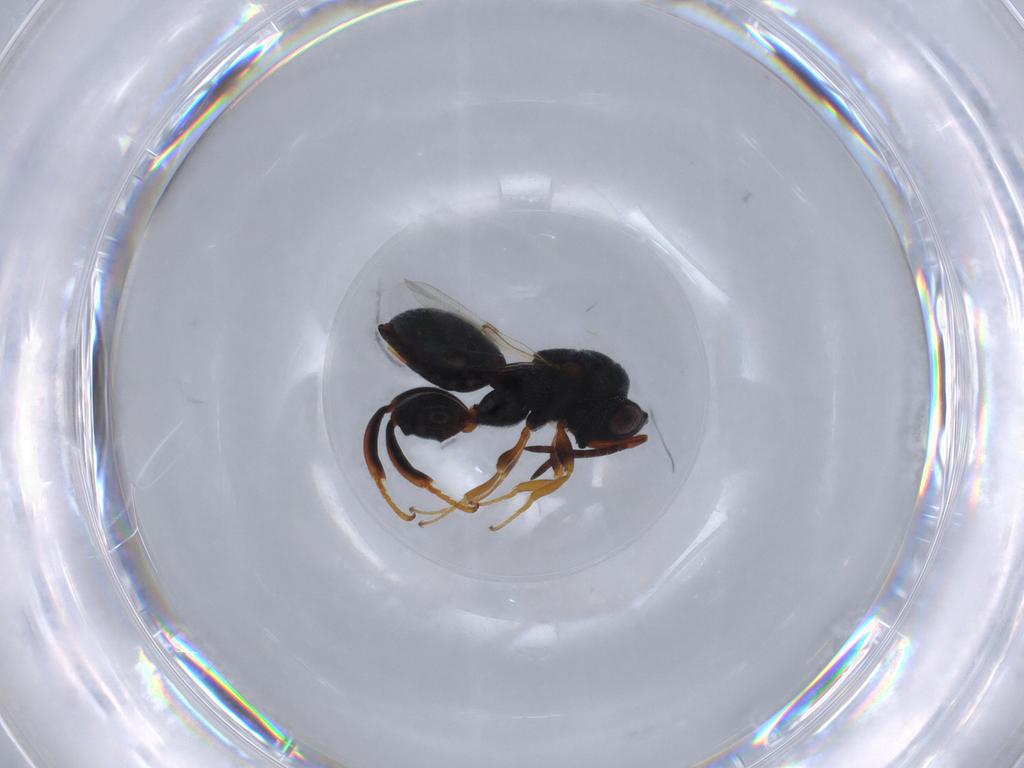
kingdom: Animalia
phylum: Arthropoda
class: Insecta
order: Hymenoptera
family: Chalcididae
